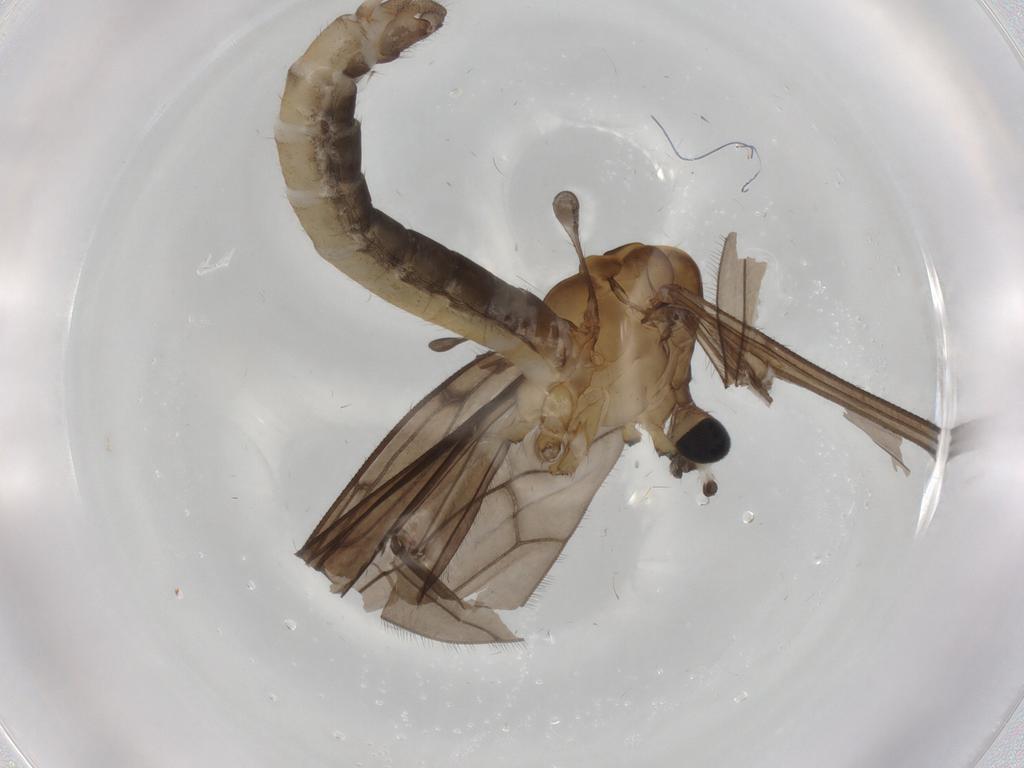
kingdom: Animalia
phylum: Arthropoda
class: Insecta
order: Diptera
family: Limoniidae
